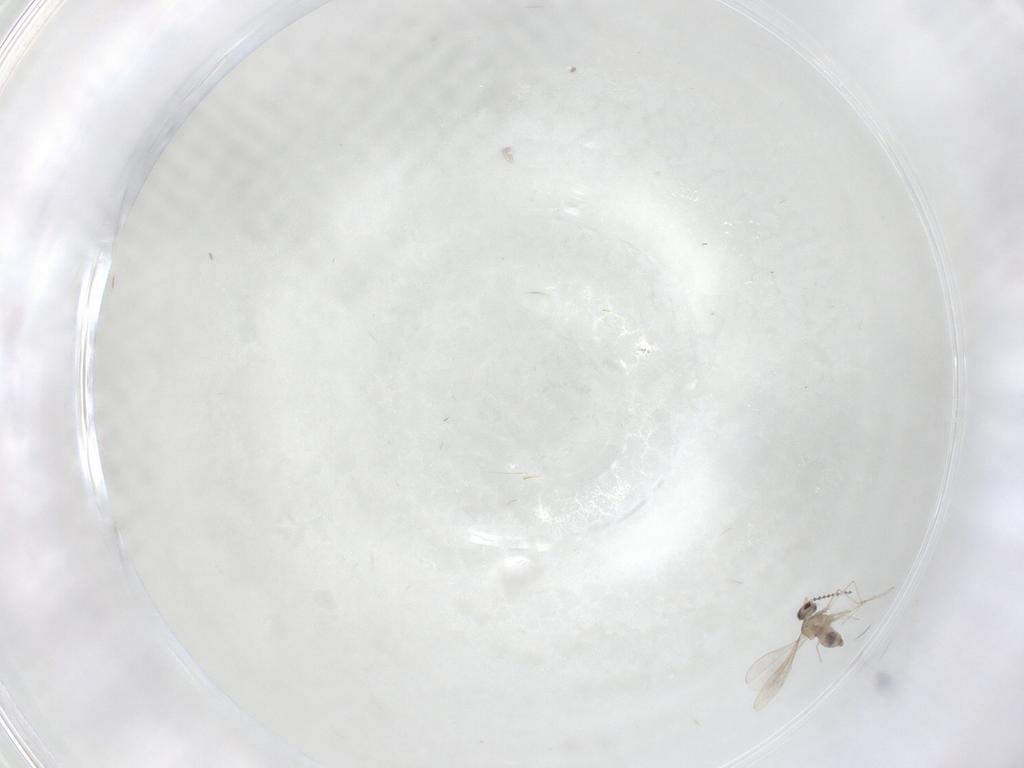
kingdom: Animalia
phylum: Arthropoda
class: Insecta
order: Diptera
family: Cecidomyiidae
